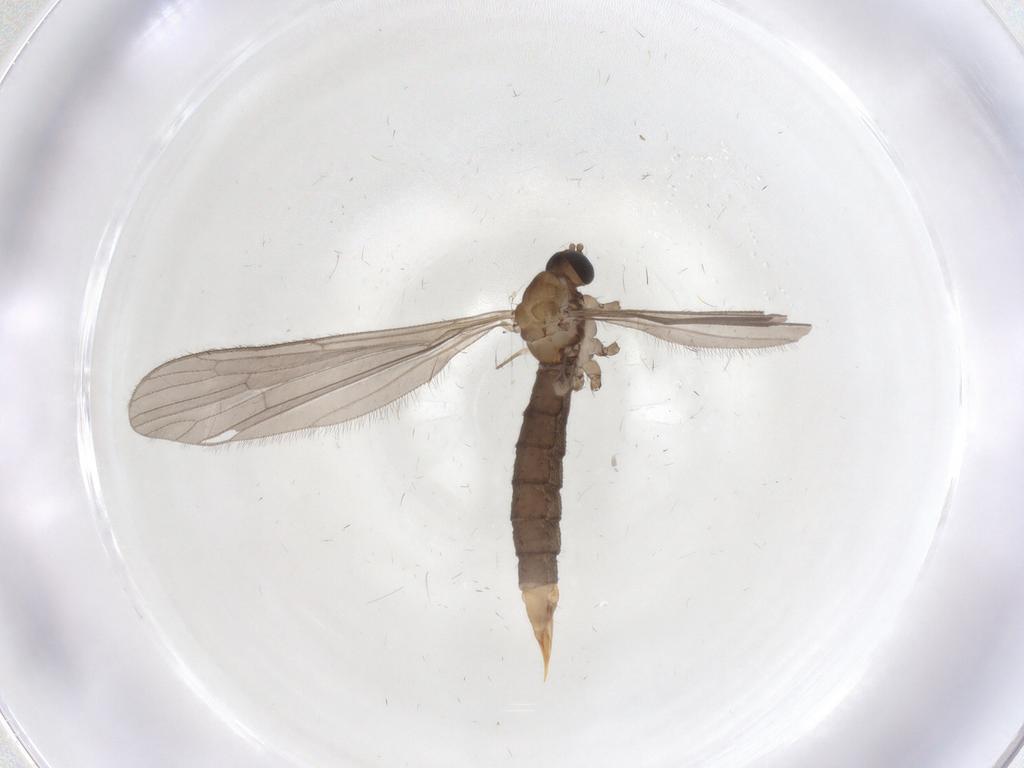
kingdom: Animalia
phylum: Arthropoda
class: Insecta
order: Diptera
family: Limoniidae
